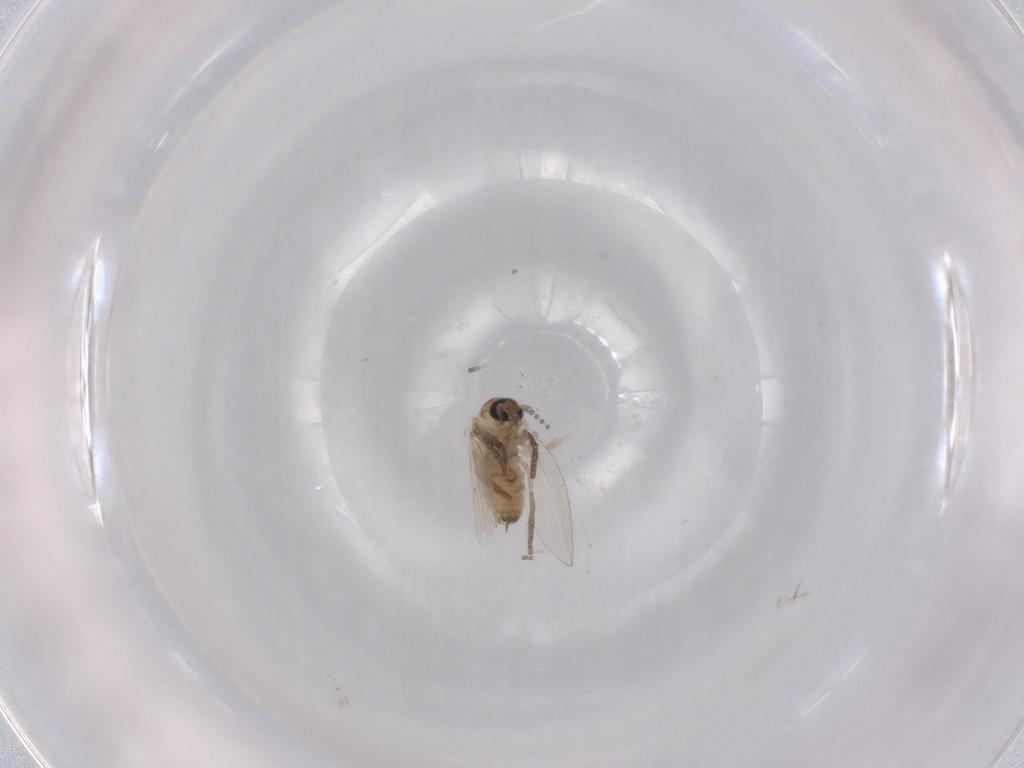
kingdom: Animalia
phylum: Arthropoda
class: Insecta
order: Diptera
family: Psychodidae
